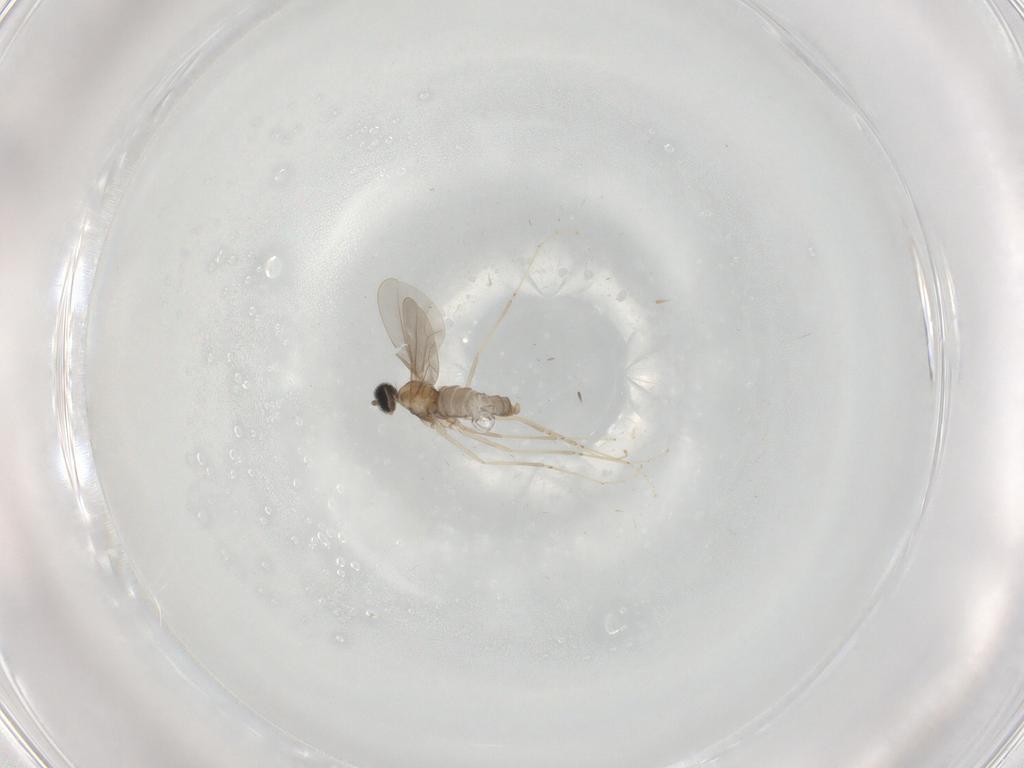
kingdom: Animalia
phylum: Arthropoda
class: Insecta
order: Diptera
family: Cecidomyiidae
